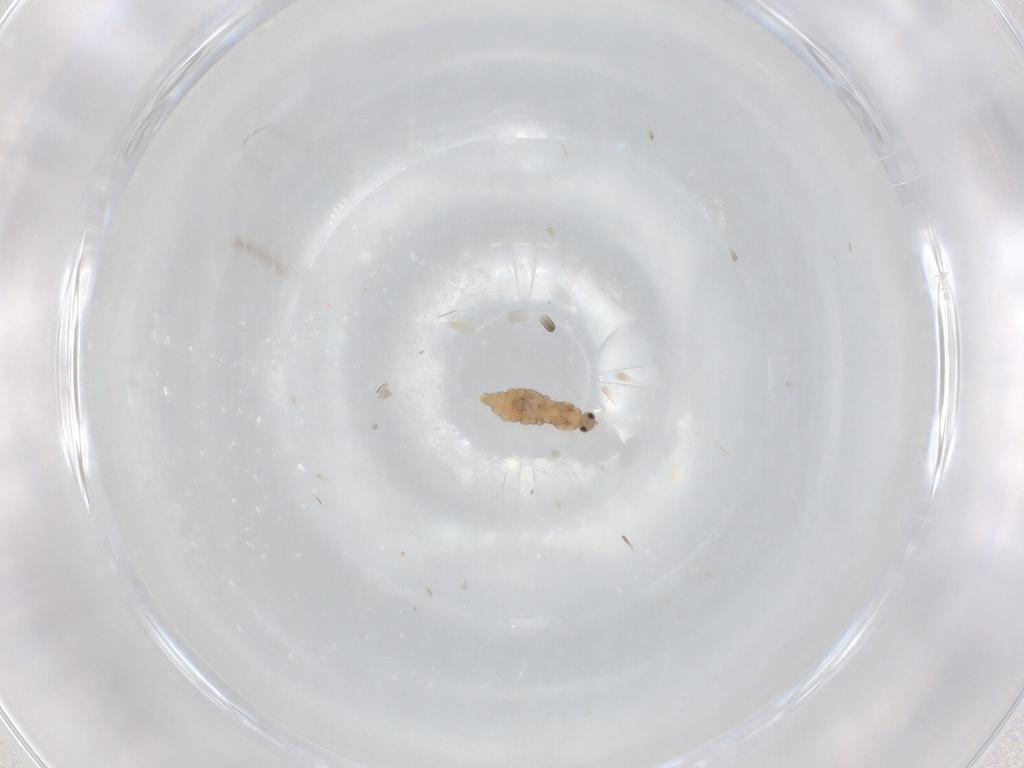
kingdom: Animalia
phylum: Arthropoda
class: Insecta
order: Diptera
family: Cecidomyiidae
